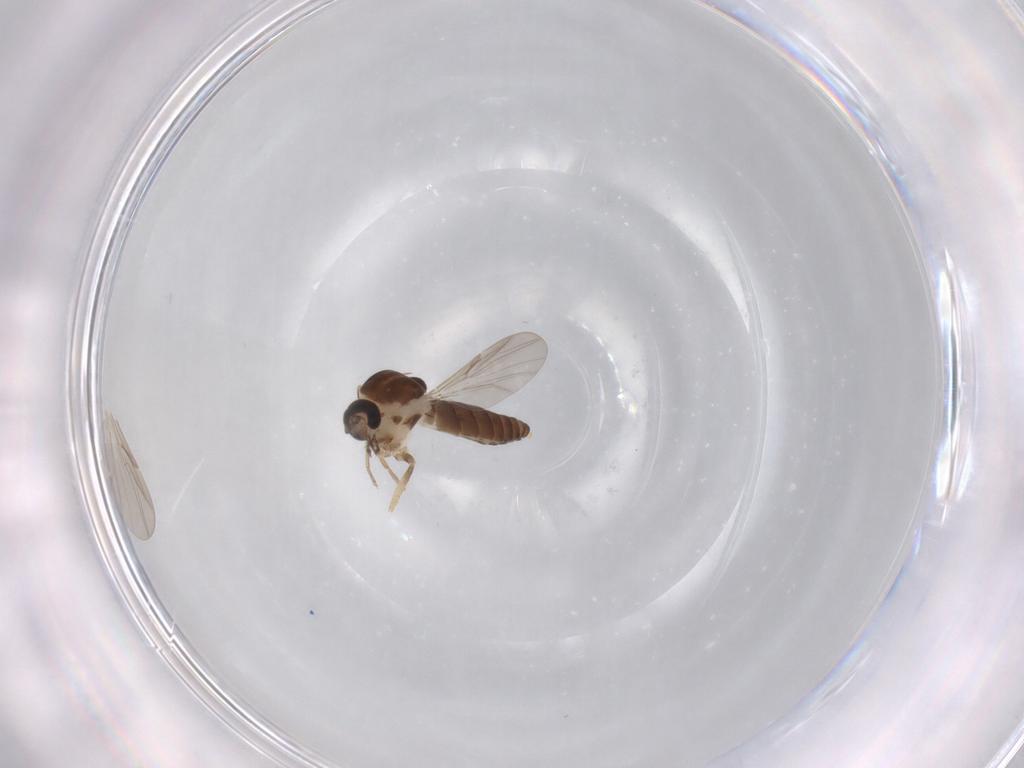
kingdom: Animalia
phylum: Arthropoda
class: Insecta
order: Diptera
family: Ceratopogonidae
